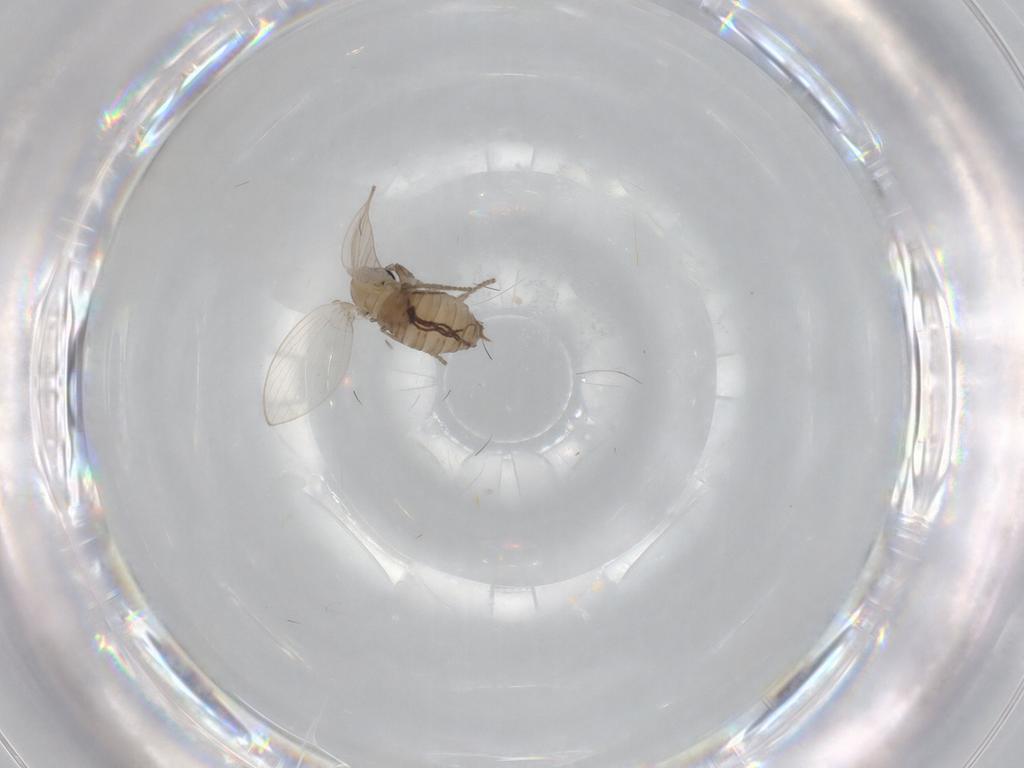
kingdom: Animalia
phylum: Arthropoda
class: Insecta
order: Diptera
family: Psychodidae
